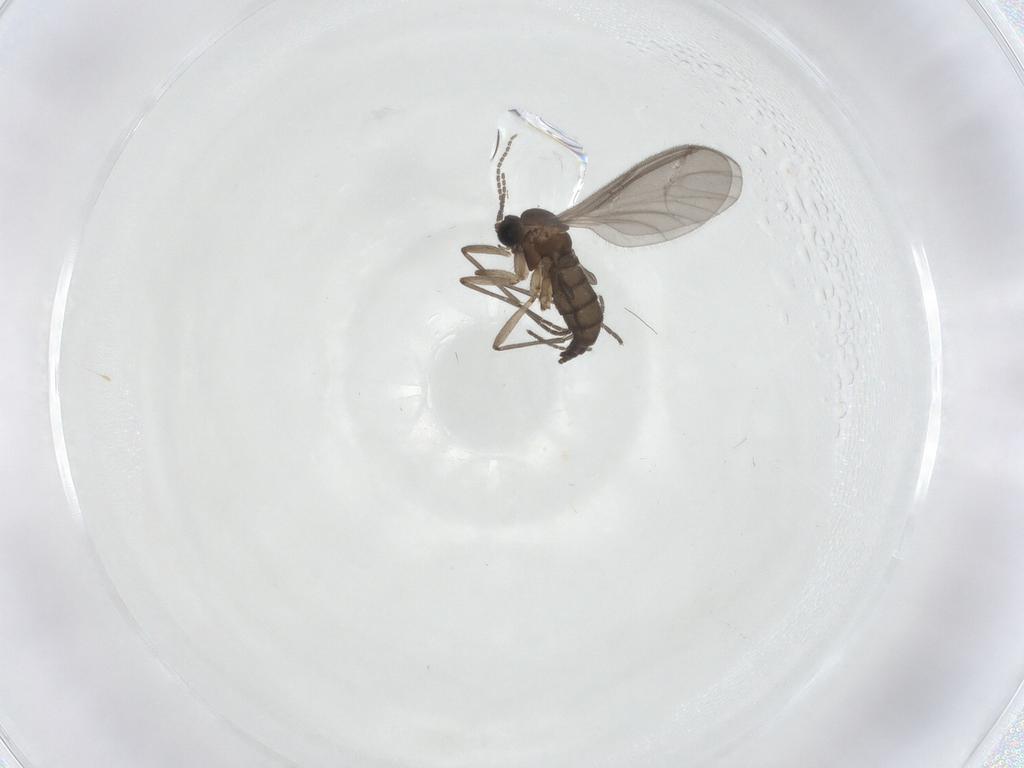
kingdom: Animalia
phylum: Arthropoda
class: Insecta
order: Diptera
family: Sciaridae
